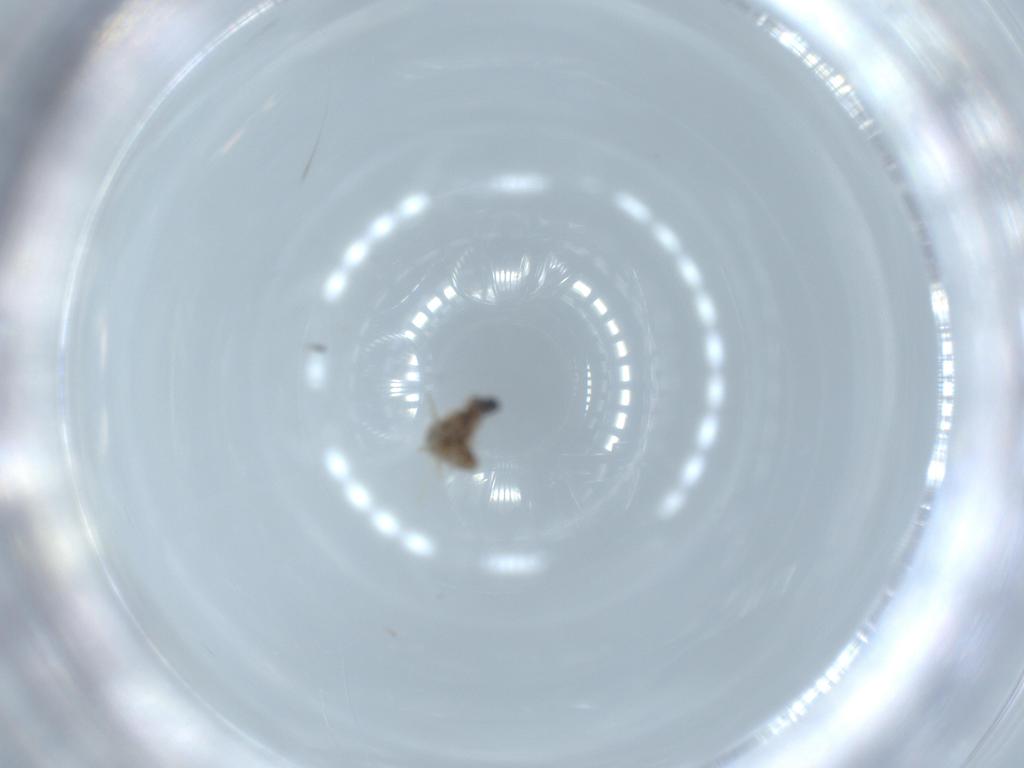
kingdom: Animalia
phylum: Arthropoda
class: Insecta
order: Diptera
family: Cecidomyiidae
